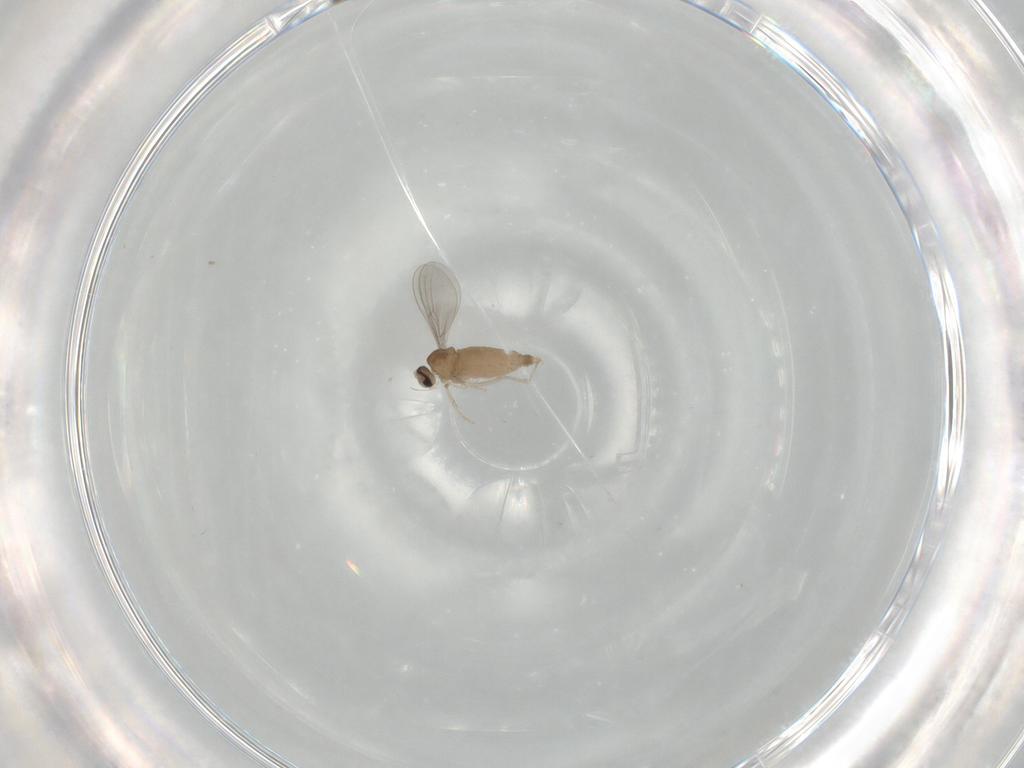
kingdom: Animalia
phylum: Arthropoda
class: Insecta
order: Diptera
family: Cecidomyiidae
